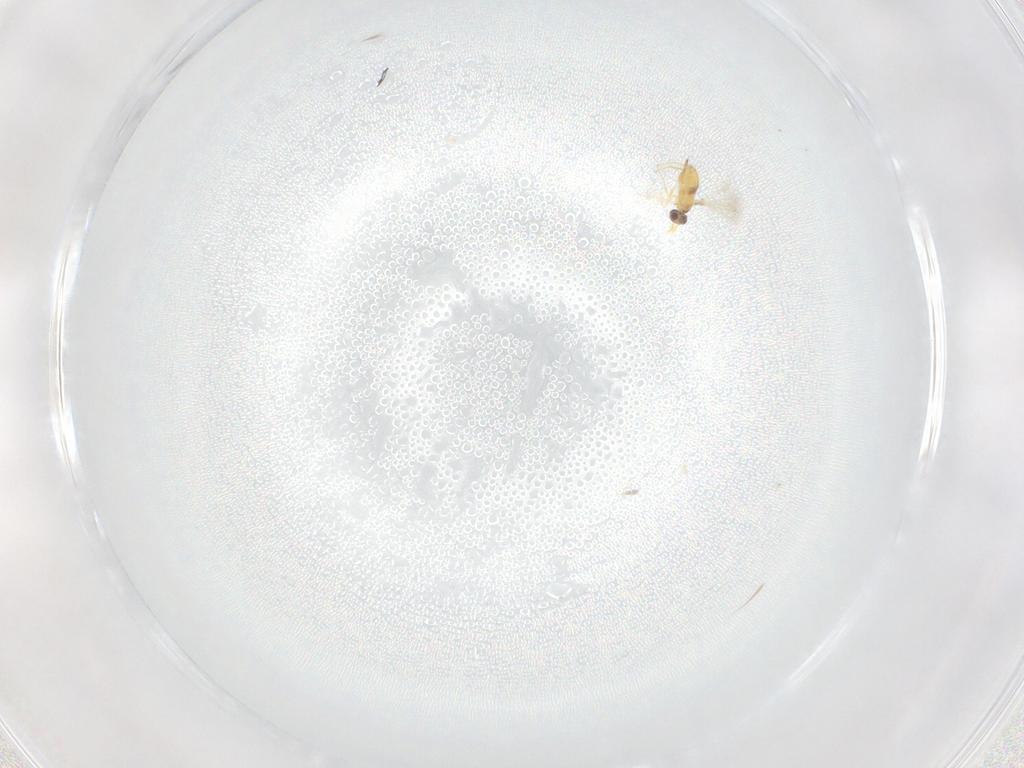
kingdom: Animalia
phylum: Arthropoda
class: Insecta
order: Hymenoptera
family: Mymaridae
